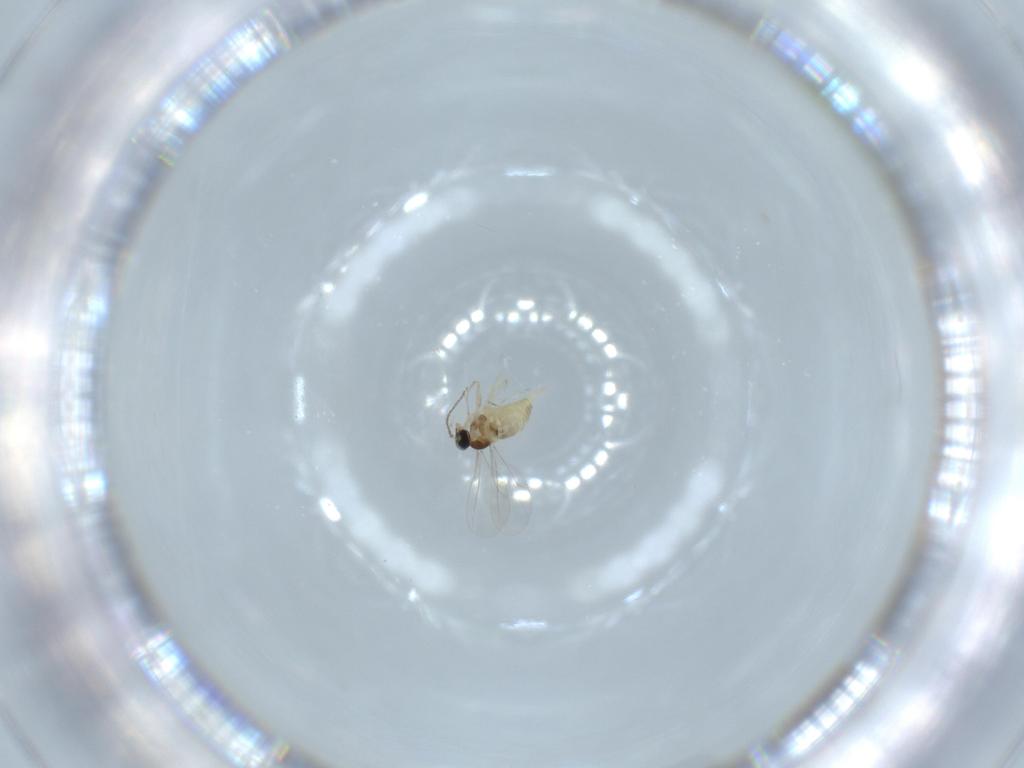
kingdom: Animalia
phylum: Arthropoda
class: Insecta
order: Diptera
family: Cecidomyiidae
